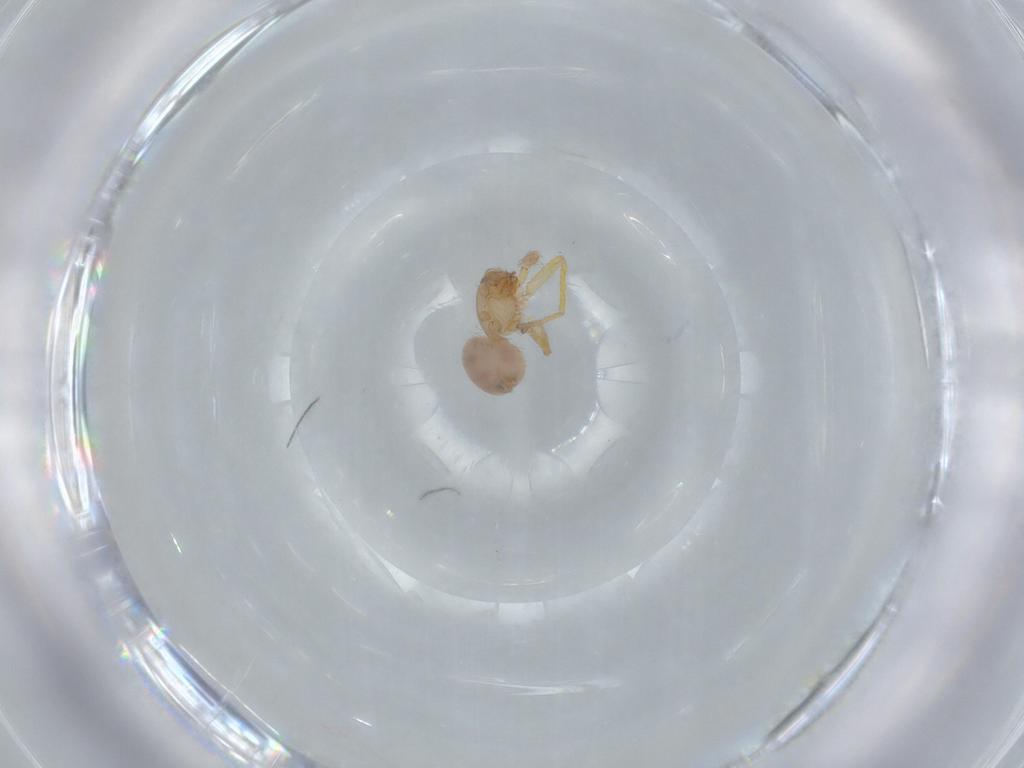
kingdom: Animalia
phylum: Arthropoda
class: Arachnida
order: Araneae
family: Oonopidae
